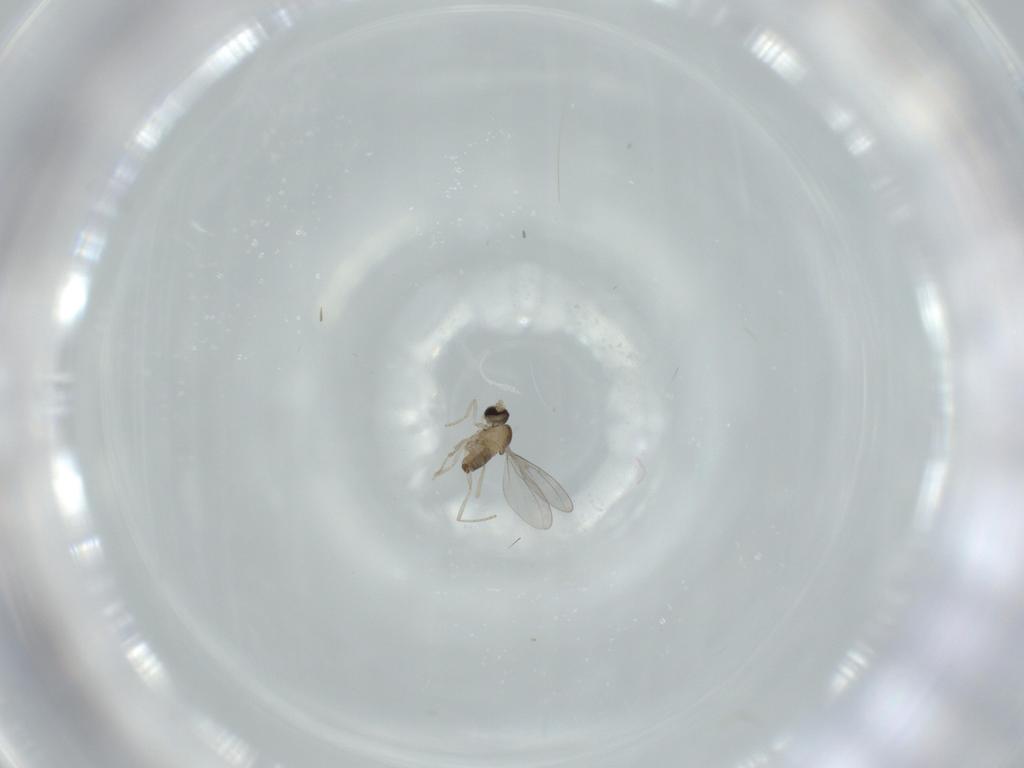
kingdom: Animalia
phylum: Arthropoda
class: Insecta
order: Diptera
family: Cecidomyiidae
